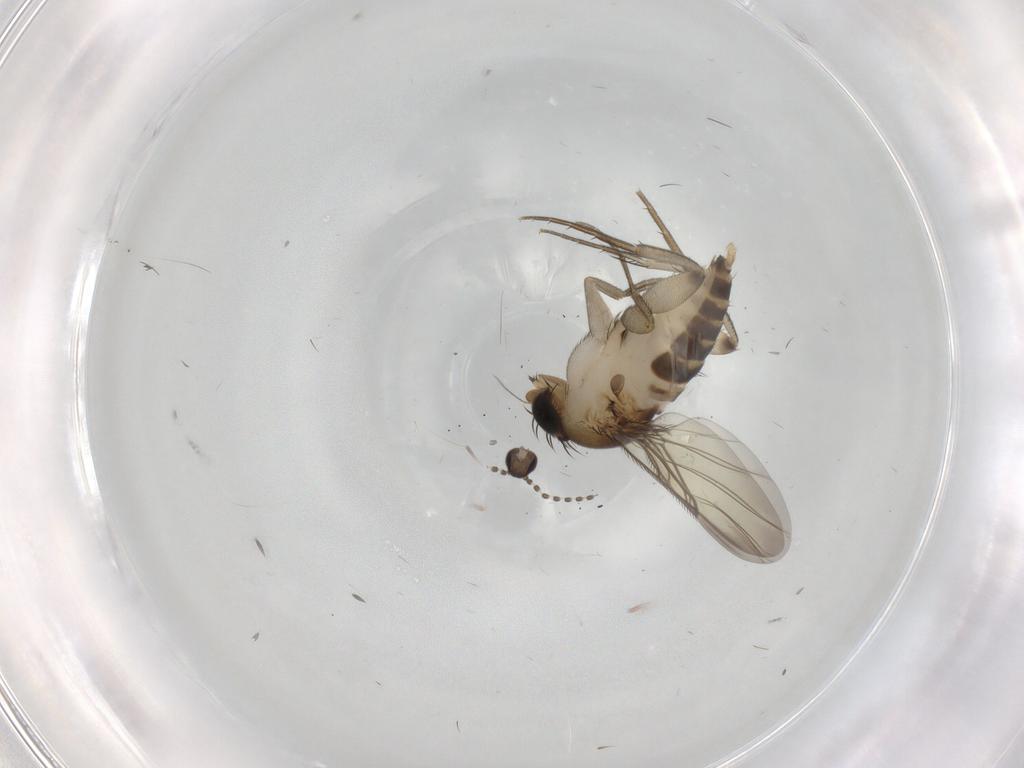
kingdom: Animalia
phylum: Arthropoda
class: Insecta
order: Diptera
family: Phoridae
